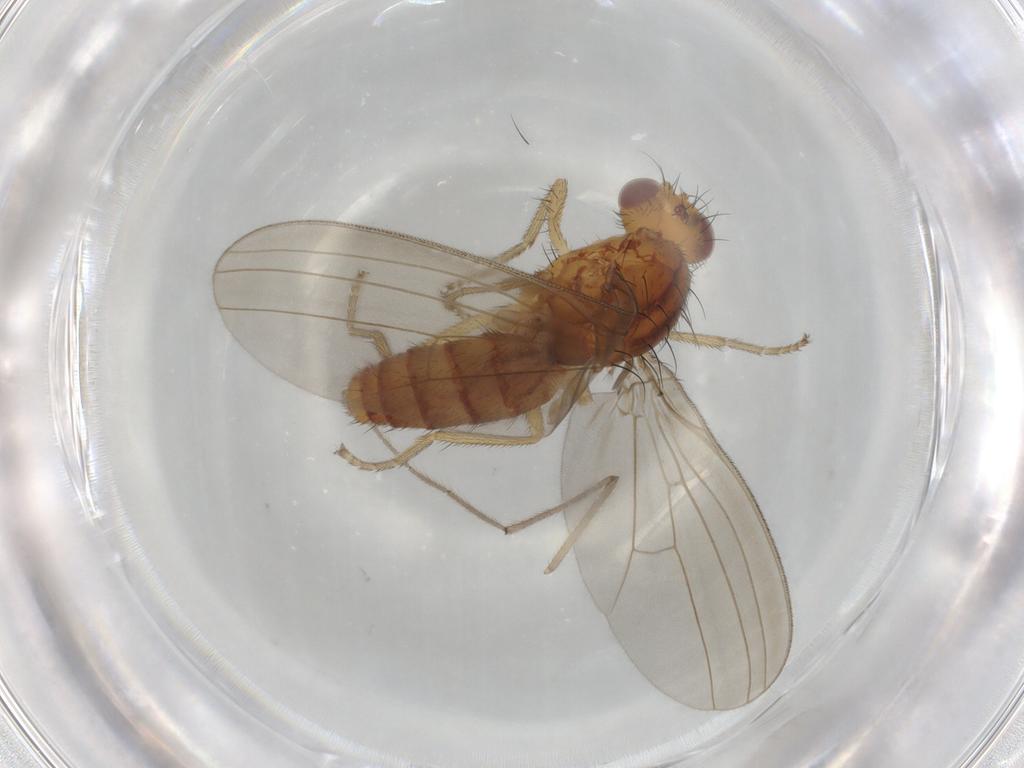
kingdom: Animalia
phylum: Arthropoda
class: Insecta
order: Diptera
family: Natalimyzidae
